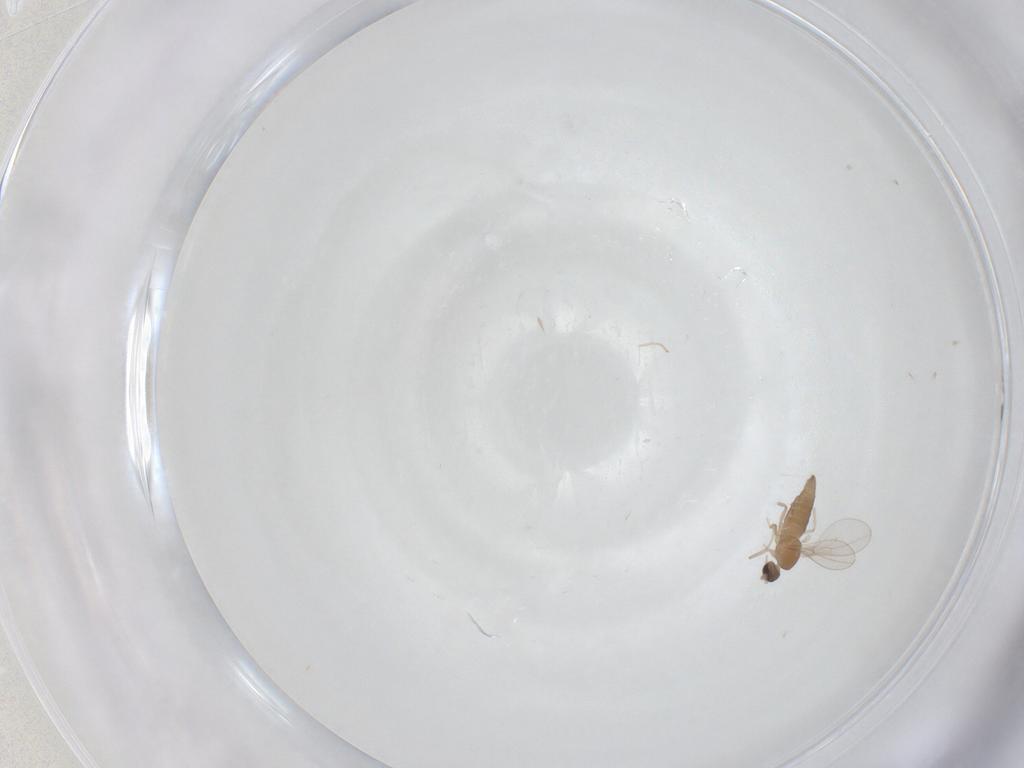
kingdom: Animalia
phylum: Arthropoda
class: Insecta
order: Diptera
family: Cecidomyiidae
